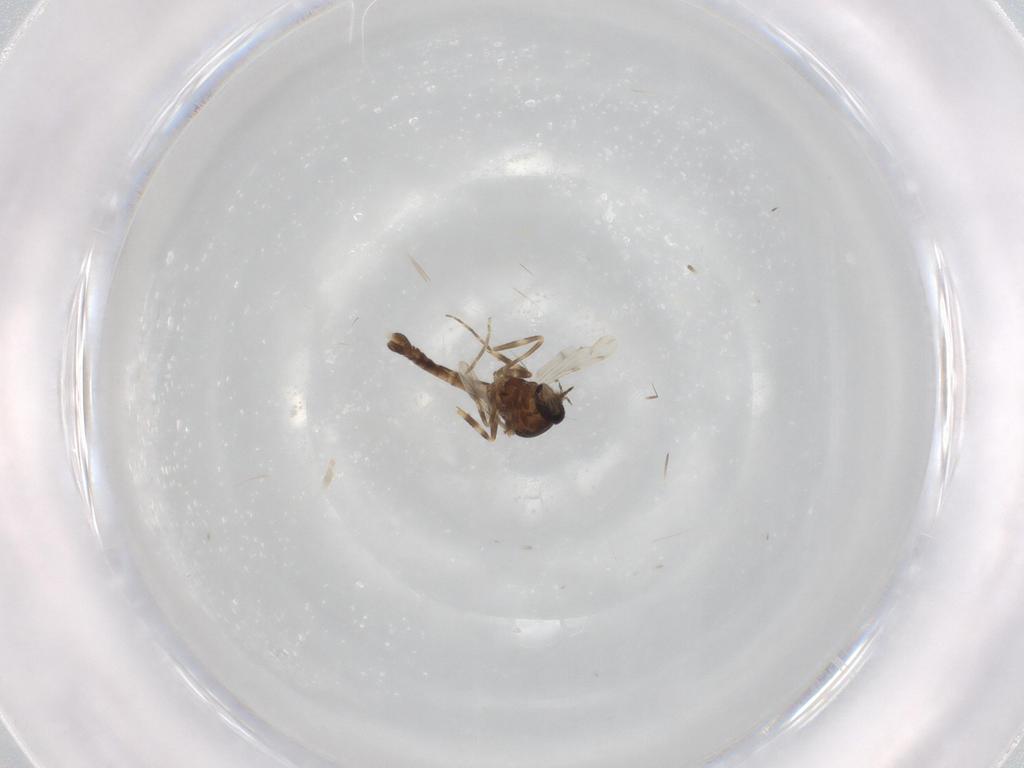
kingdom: Animalia
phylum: Arthropoda
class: Insecta
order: Diptera
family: Ceratopogonidae
